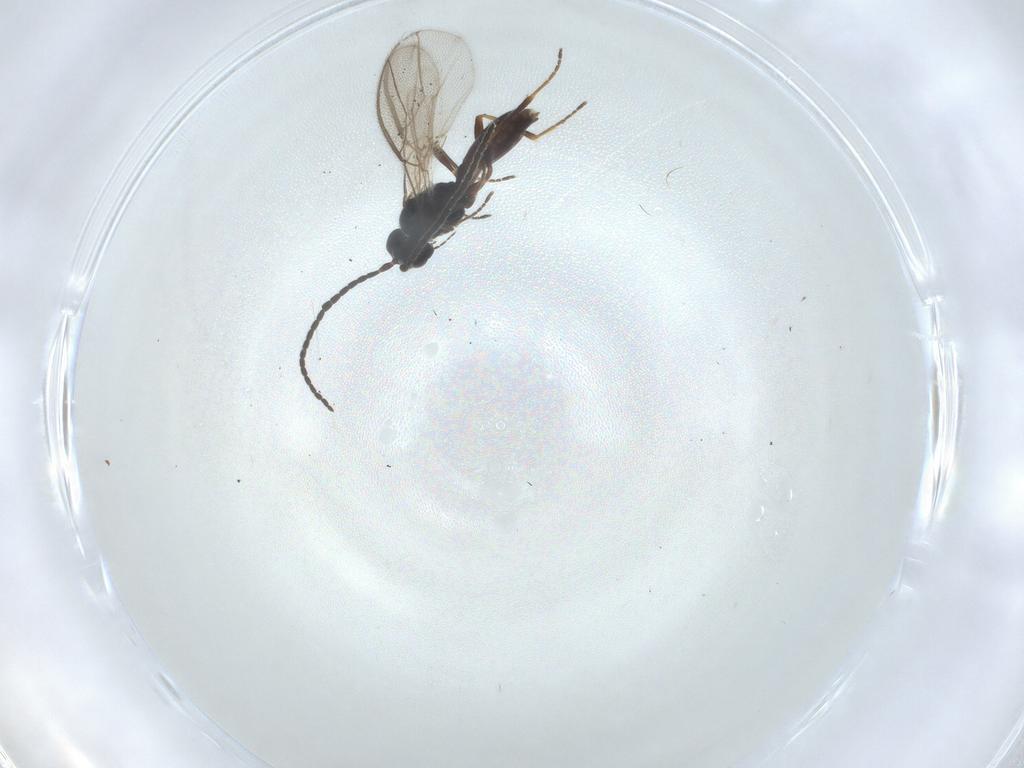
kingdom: Animalia
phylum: Arthropoda
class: Insecta
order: Hymenoptera
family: Braconidae
